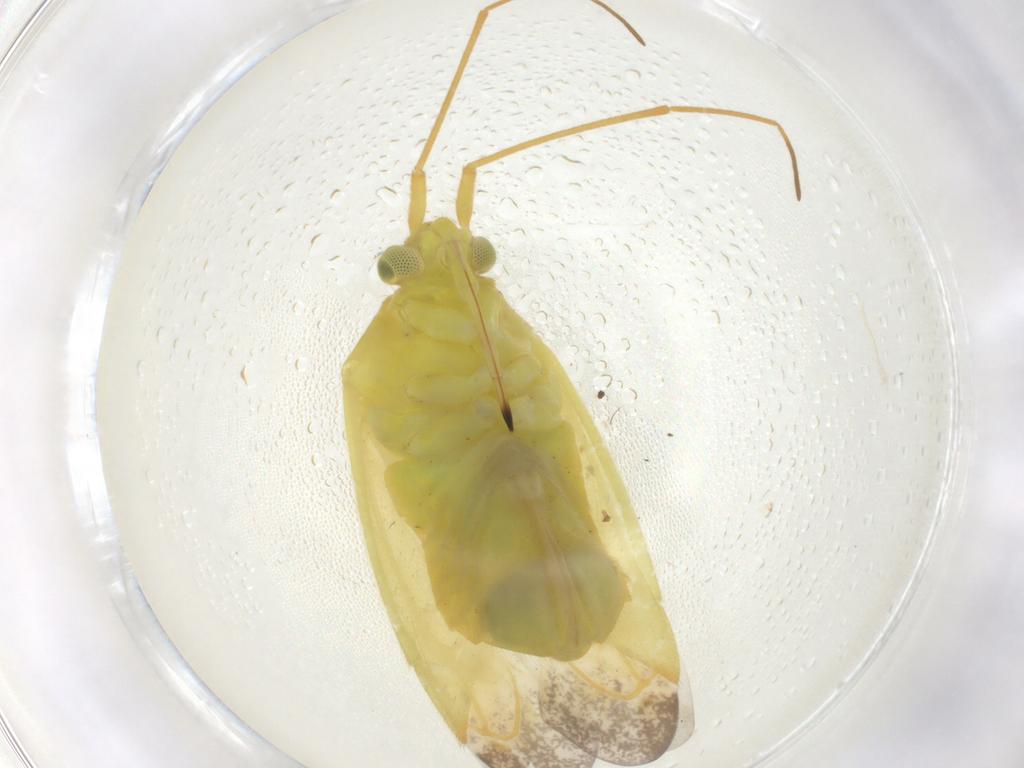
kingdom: Animalia
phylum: Arthropoda
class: Insecta
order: Hemiptera
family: Miridae
